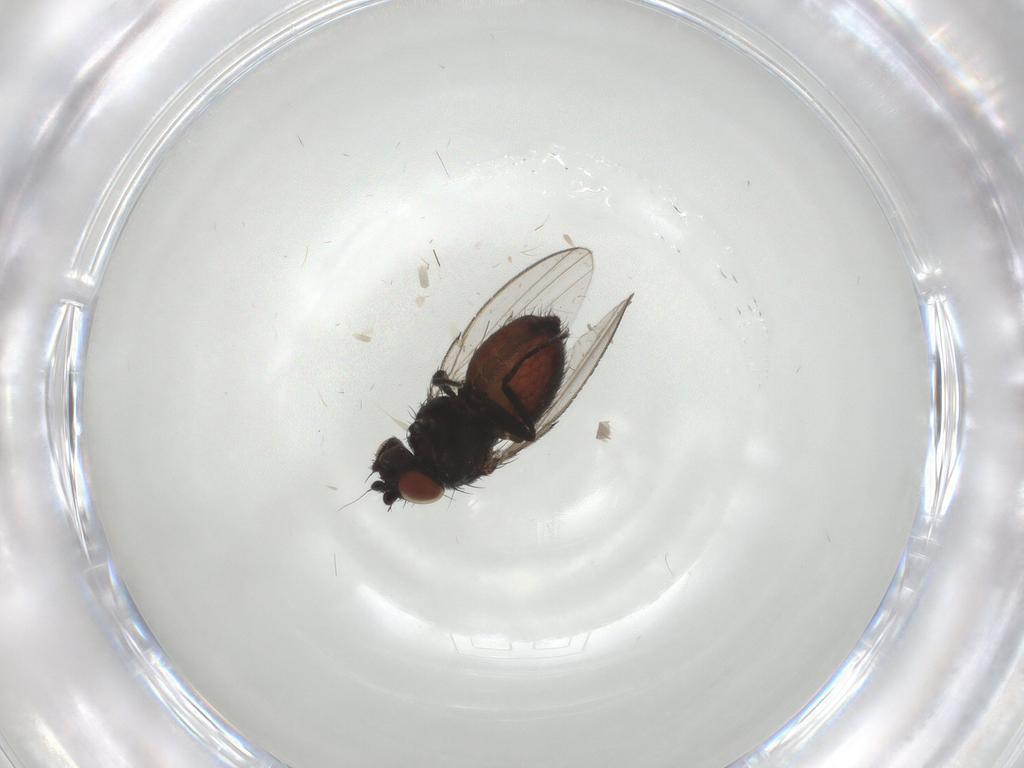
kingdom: Animalia
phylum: Arthropoda
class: Insecta
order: Diptera
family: Milichiidae
